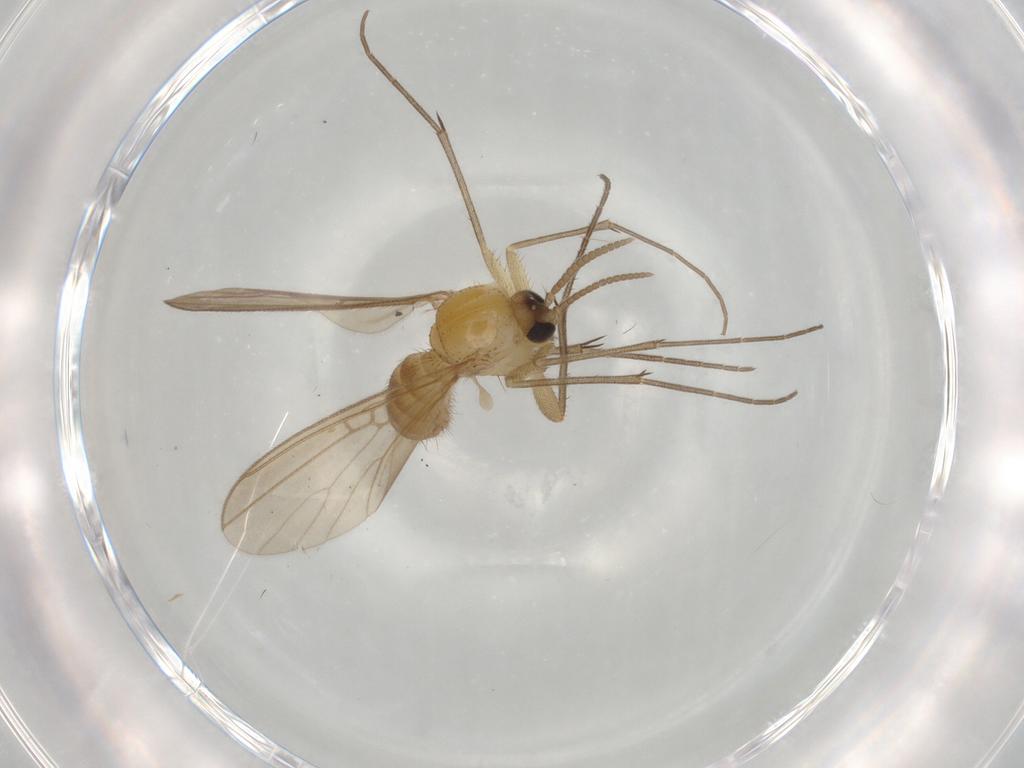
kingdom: Animalia
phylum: Arthropoda
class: Insecta
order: Diptera
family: Mycetophilidae
